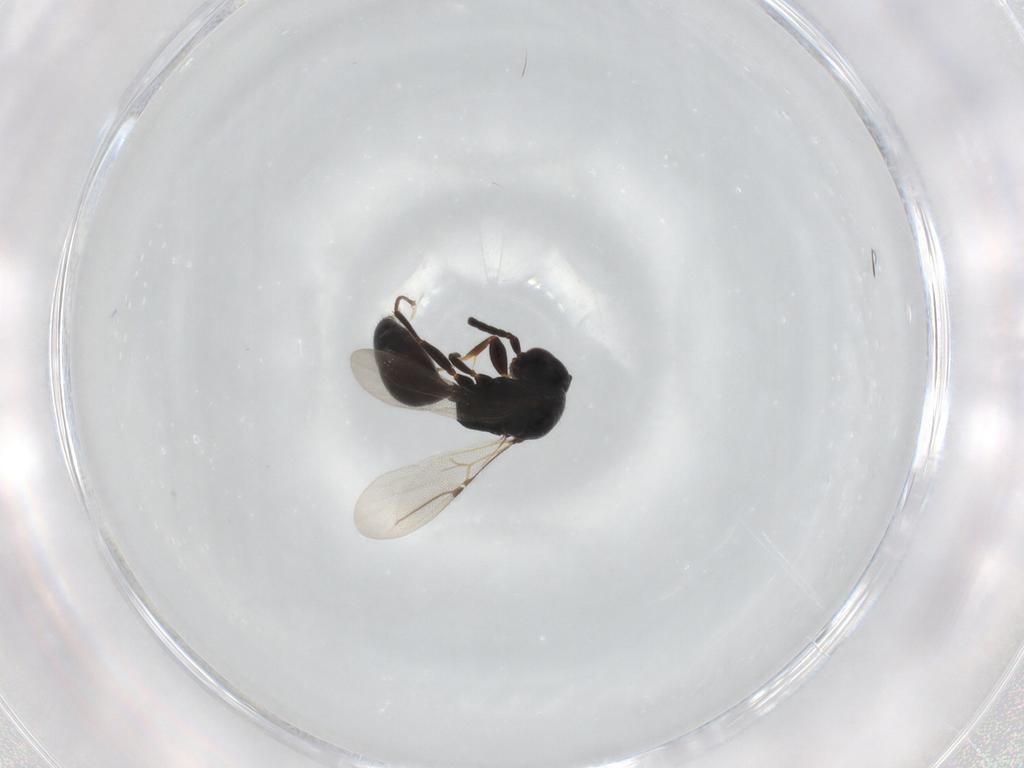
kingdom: Animalia
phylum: Arthropoda
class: Insecta
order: Hymenoptera
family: Bethylidae
